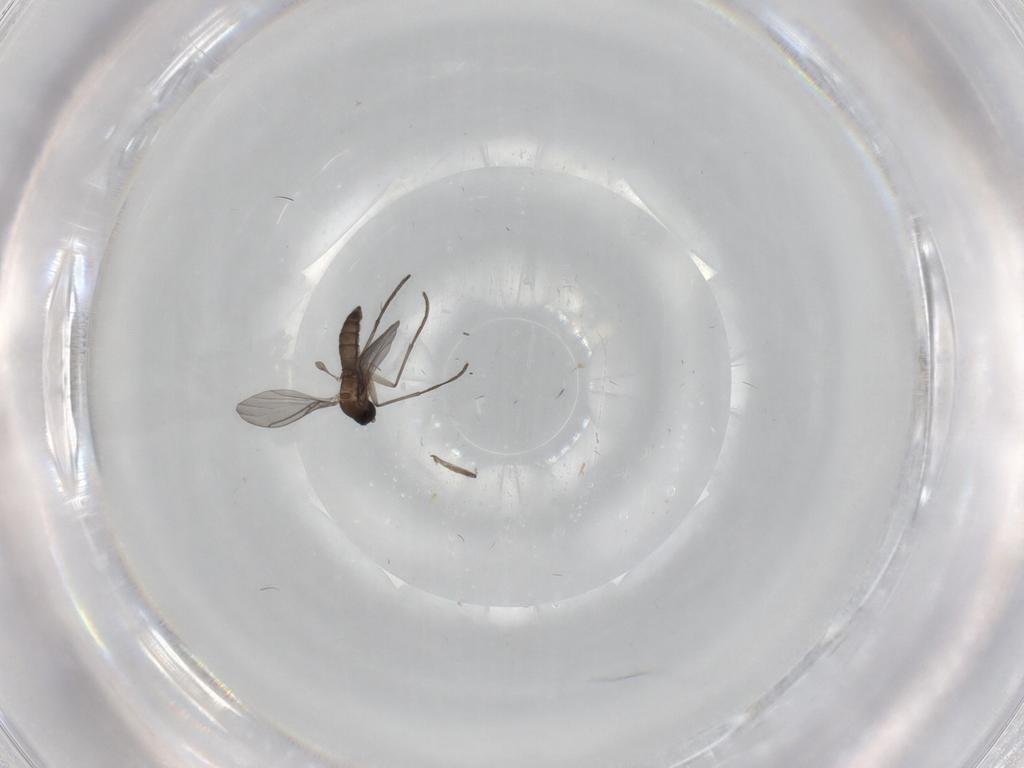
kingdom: Animalia
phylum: Arthropoda
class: Insecta
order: Diptera
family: Sciaridae
